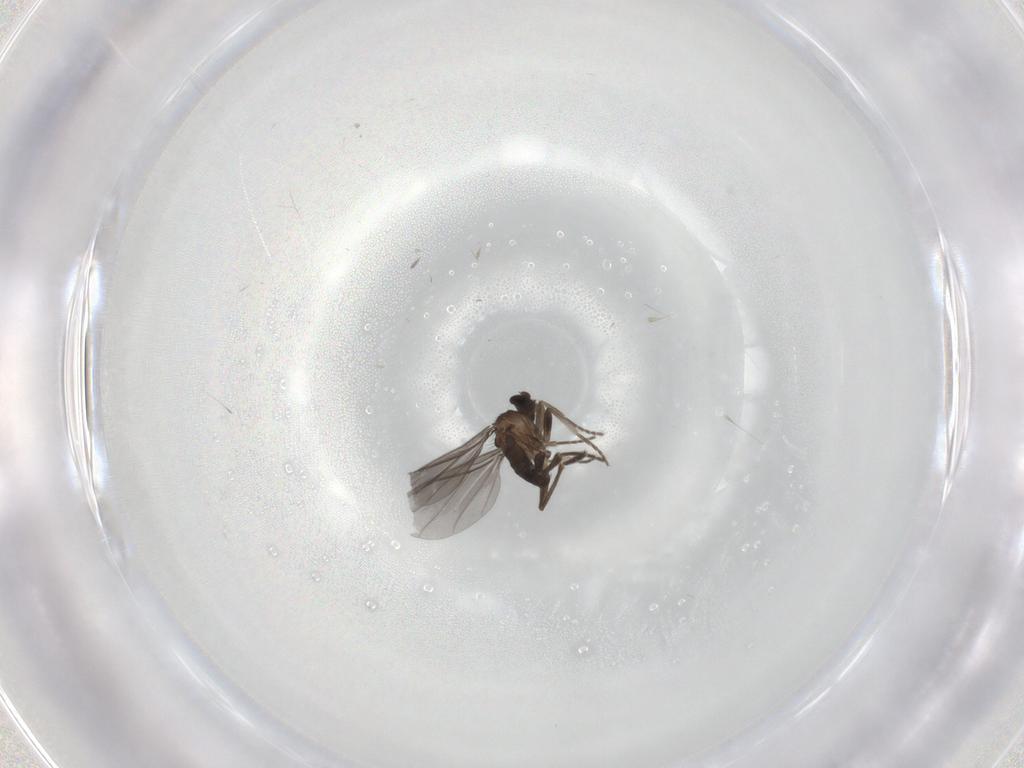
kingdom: Animalia
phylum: Arthropoda
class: Insecta
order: Diptera
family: Phoridae
